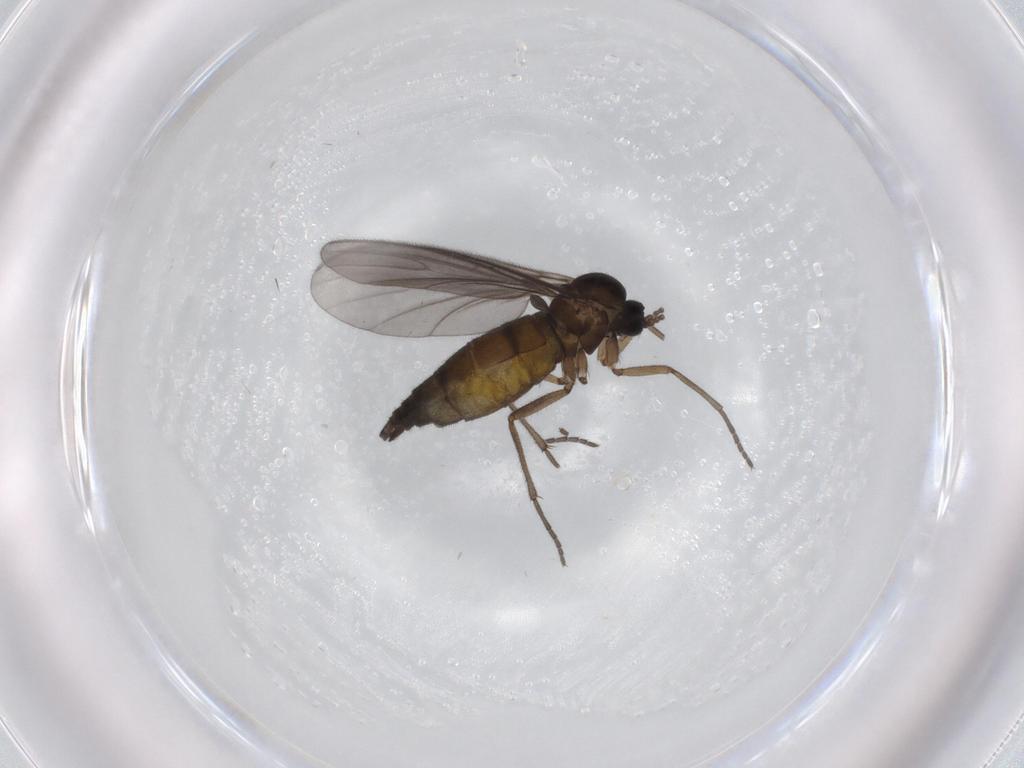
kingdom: Animalia
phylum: Arthropoda
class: Insecta
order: Diptera
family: Sciaridae
